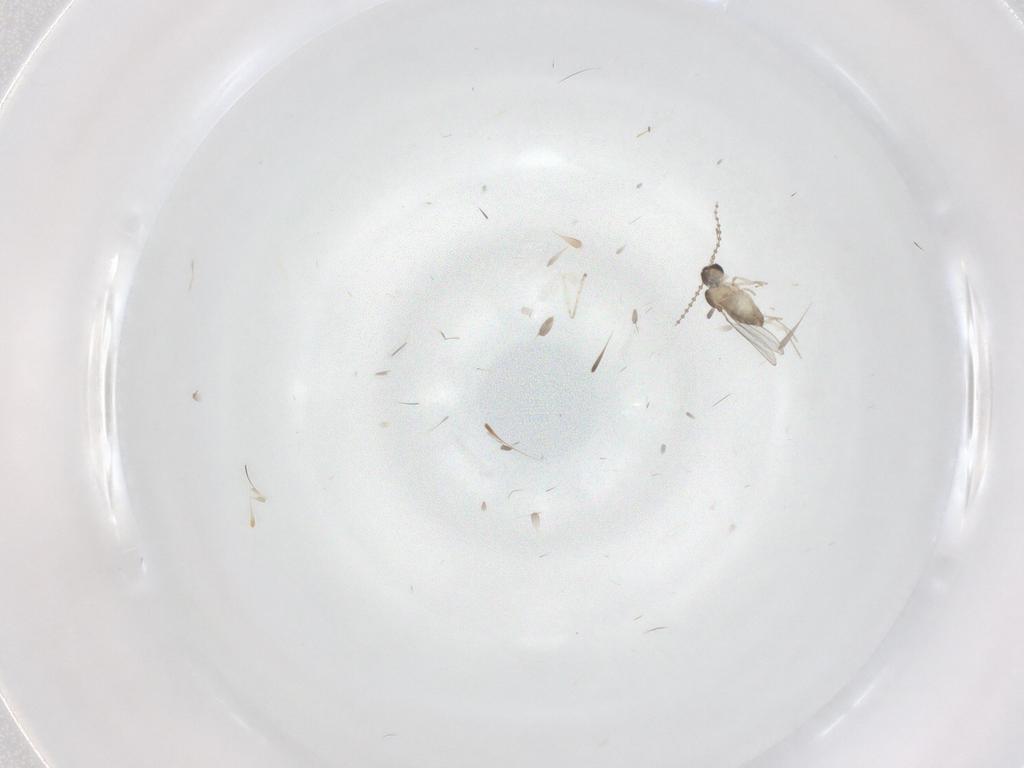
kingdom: Animalia
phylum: Arthropoda
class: Insecta
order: Diptera
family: Cecidomyiidae
